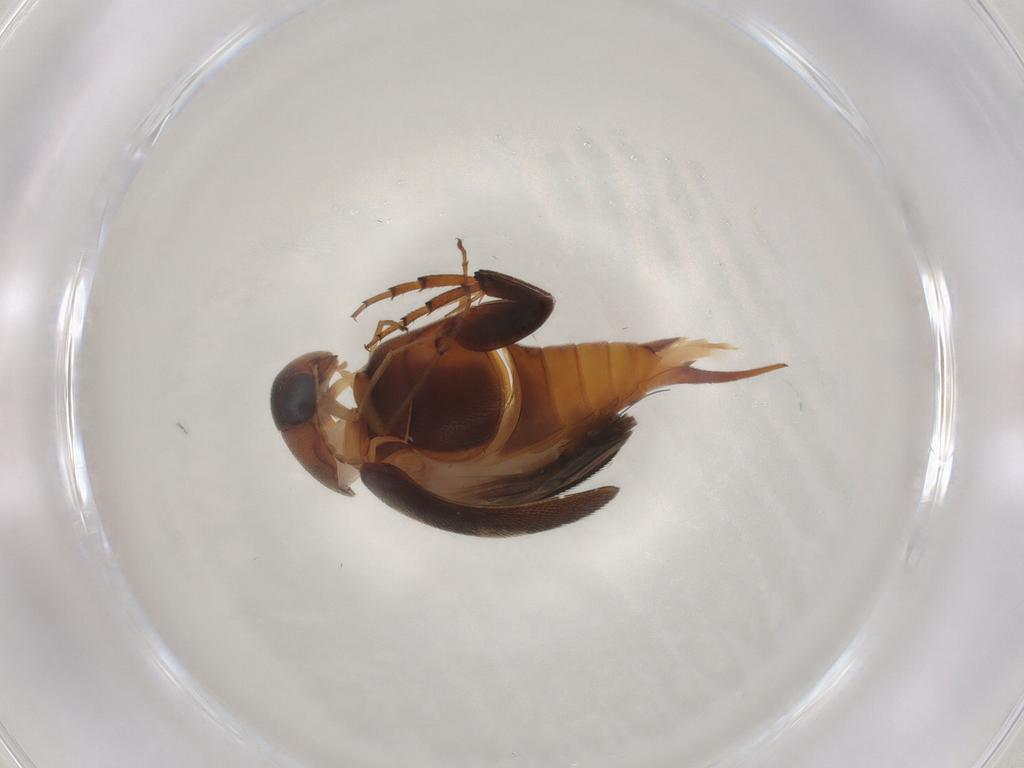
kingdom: Animalia
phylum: Arthropoda
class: Insecta
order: Coleoptera
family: Mordellidae
